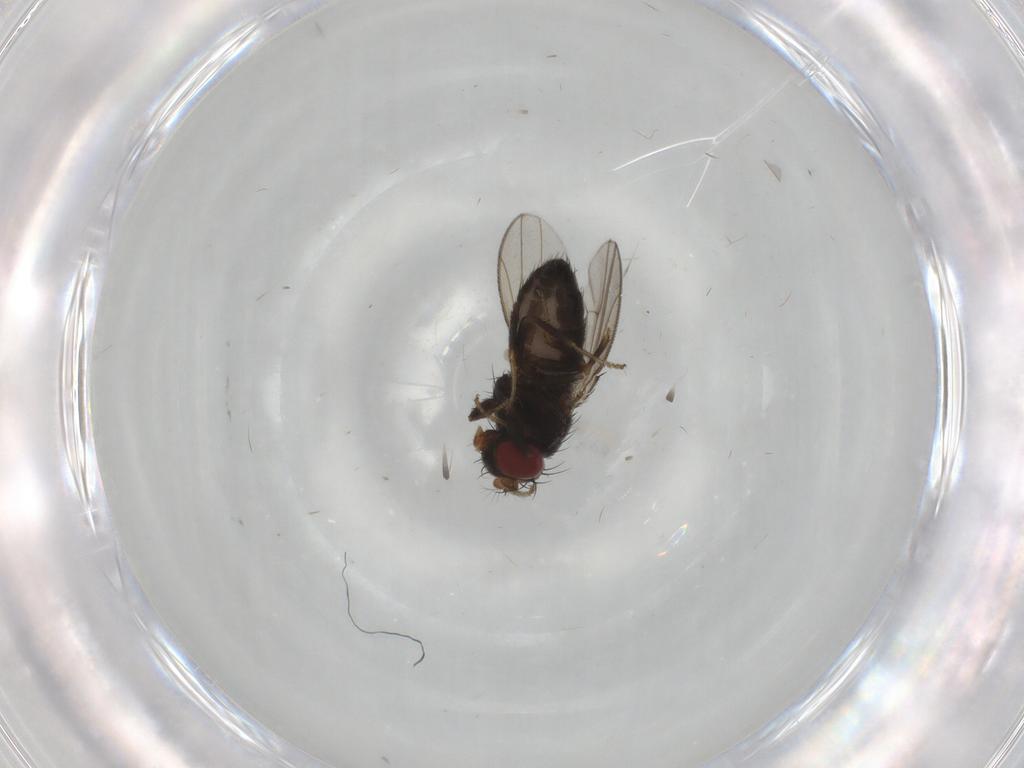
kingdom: Animalia
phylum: Arthropoda
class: Insecta
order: Diptera
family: Ephydridae
